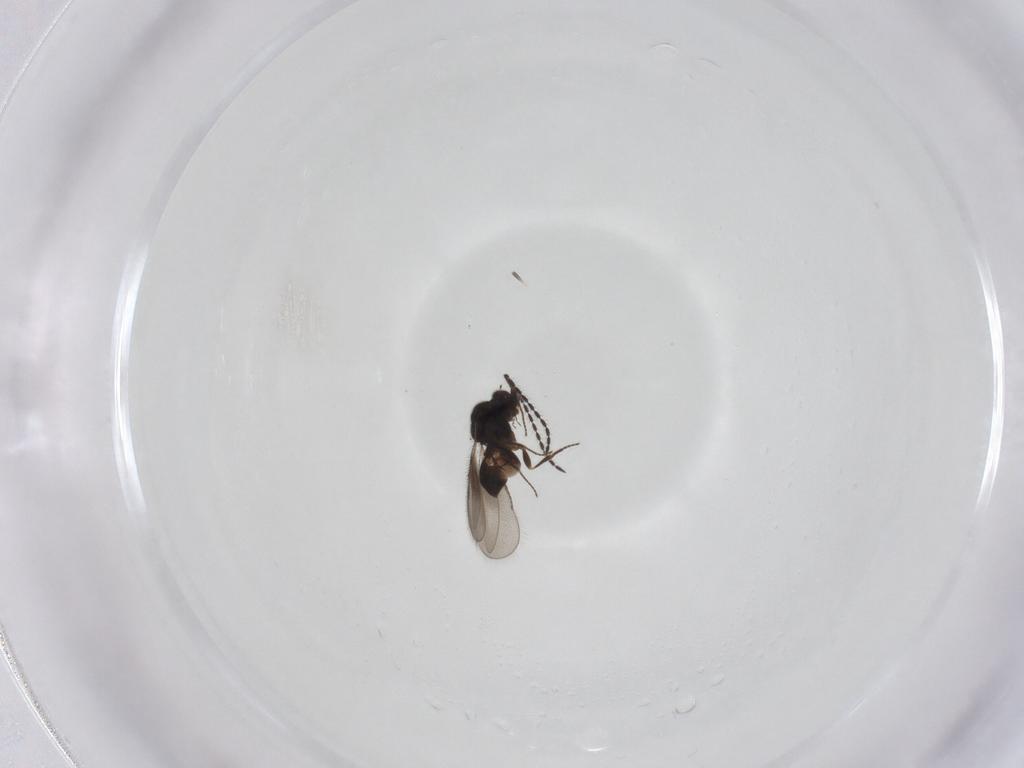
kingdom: Animalia
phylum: Arthropoda
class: Insecta
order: Hymenoptera
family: Ceraphronidae
